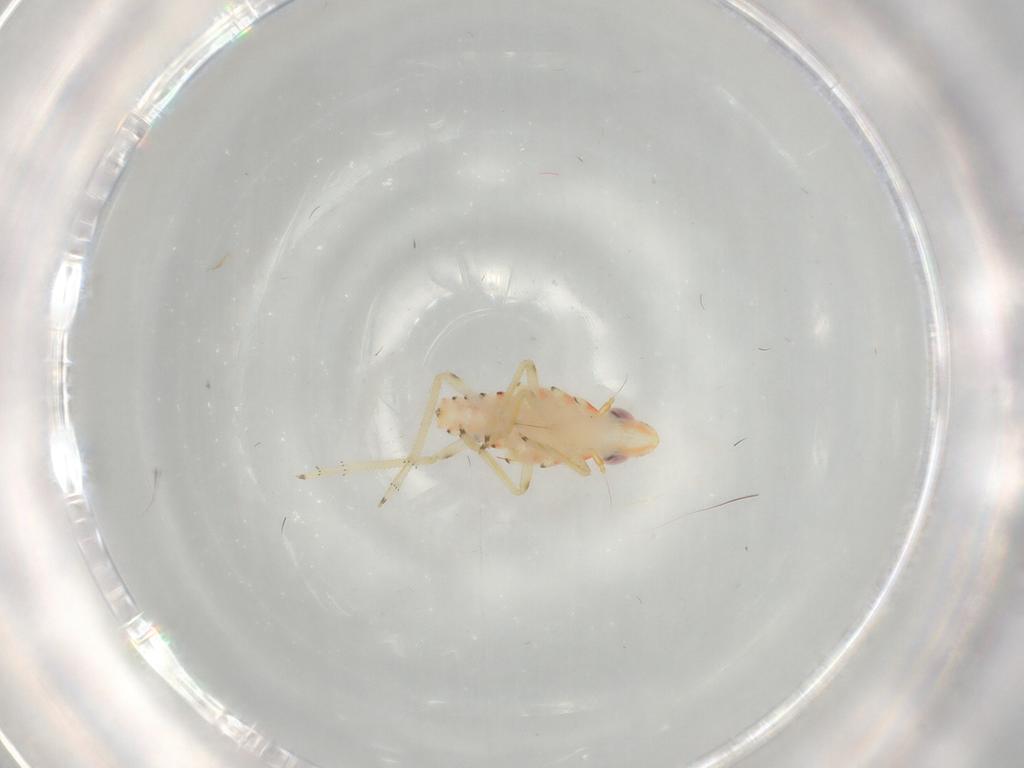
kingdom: Animalia
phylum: Arthropoda
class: Insecta
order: Hemiptera
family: Tropiduchidae
